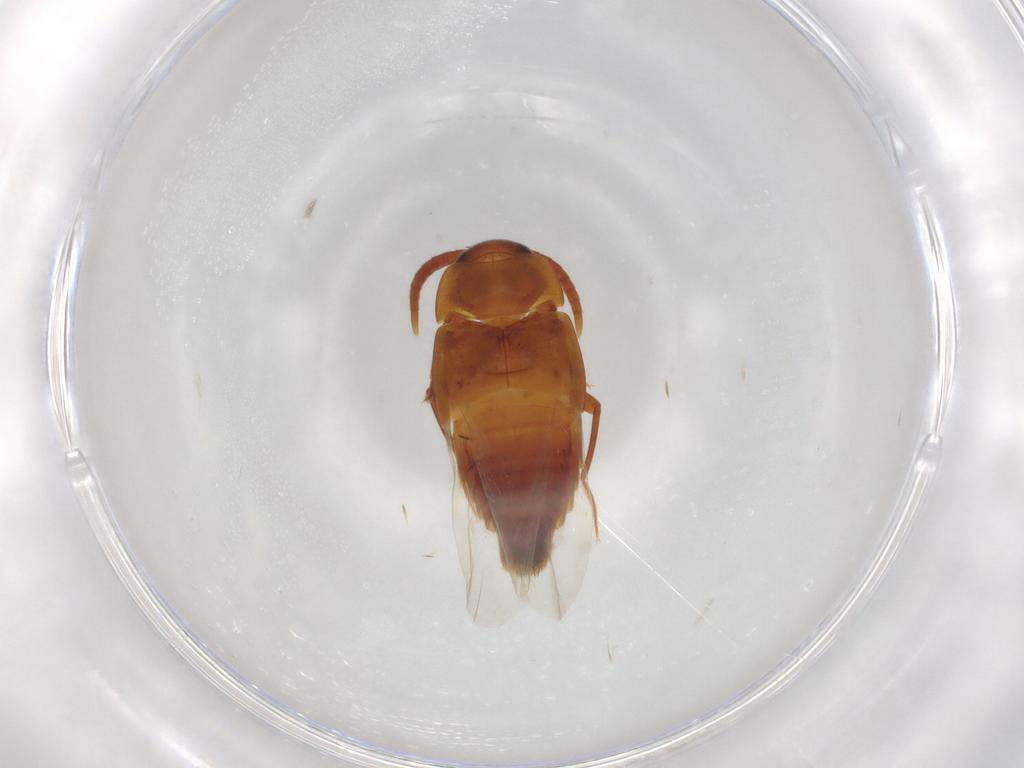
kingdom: Animalia
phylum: Arthropoda
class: Insecta
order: Coleoptera
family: Staphylinidae
